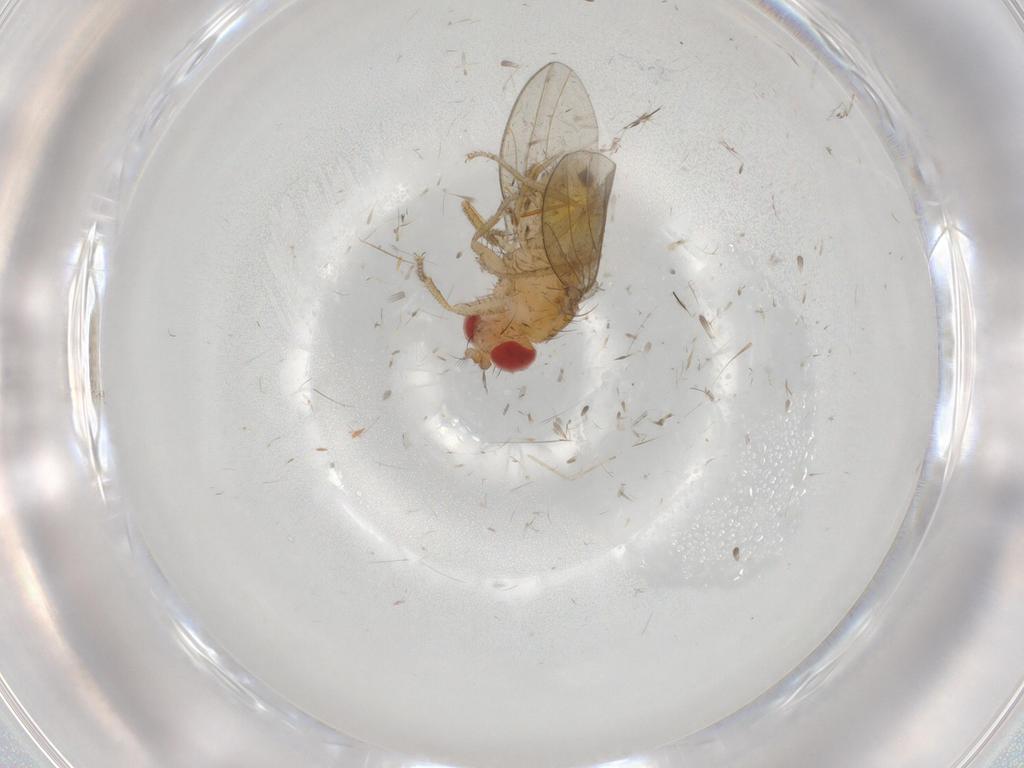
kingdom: Animalia
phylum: Arthropoda
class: Insecta
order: Diptera
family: Drosophilidae
